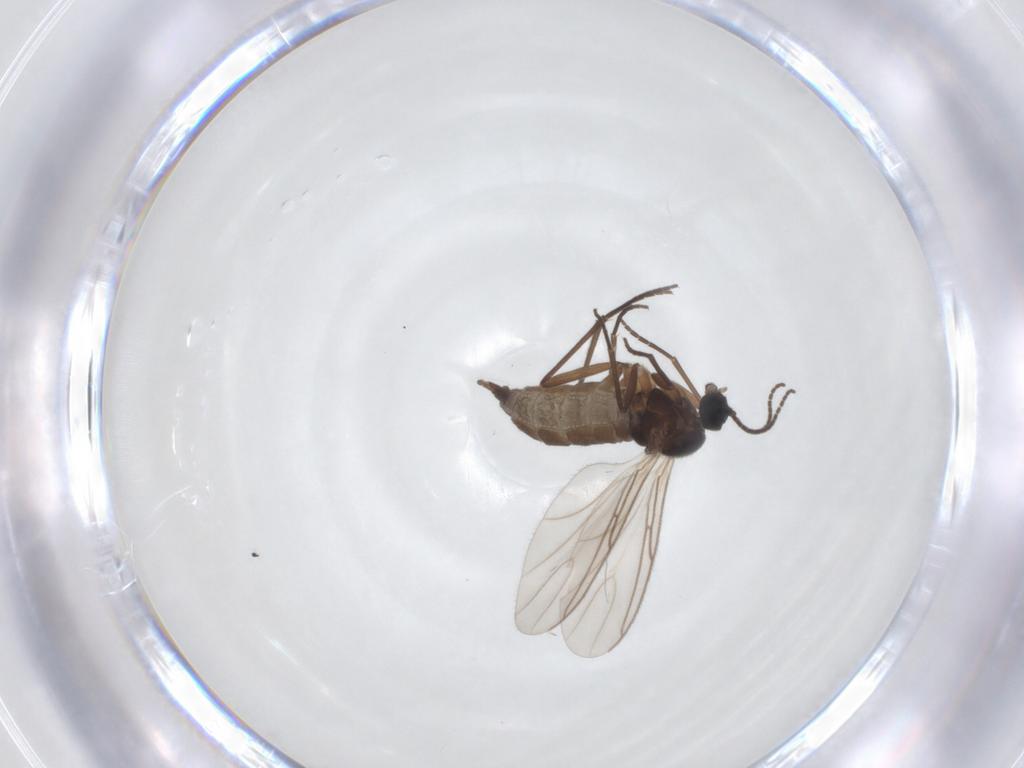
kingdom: Animalia
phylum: Arthropoda
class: Insecta
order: Diptera
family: Sciaridae
